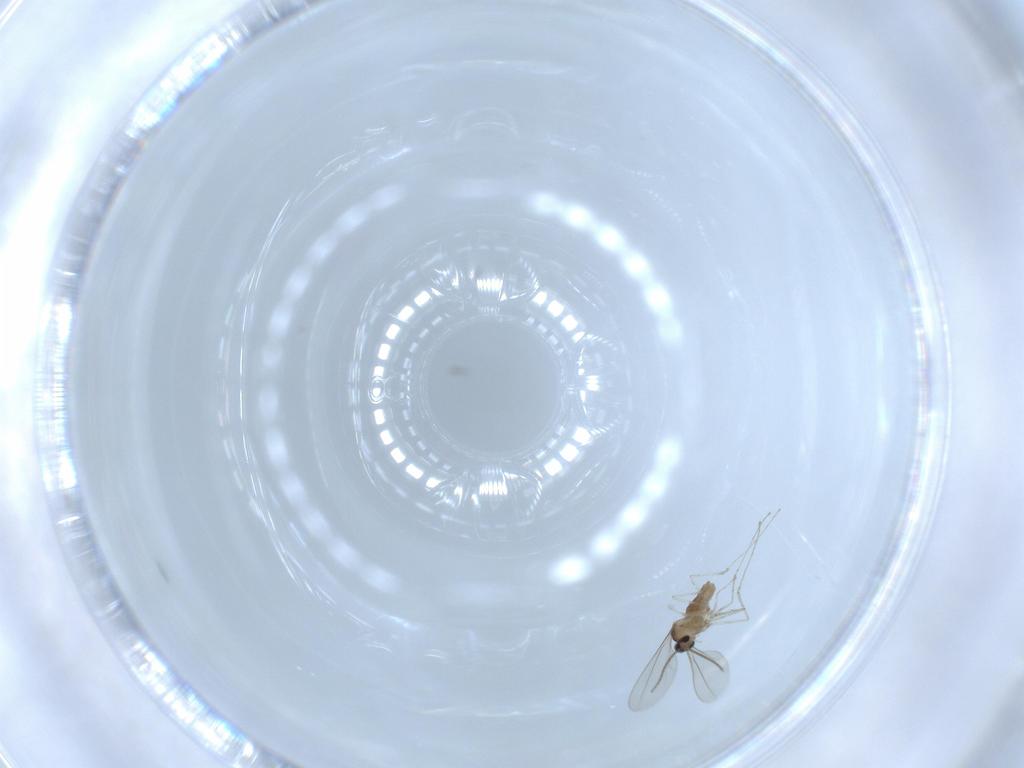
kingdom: Animalia
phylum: Arthropoda
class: Insecta
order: Diptera
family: Cecidomyiidae
